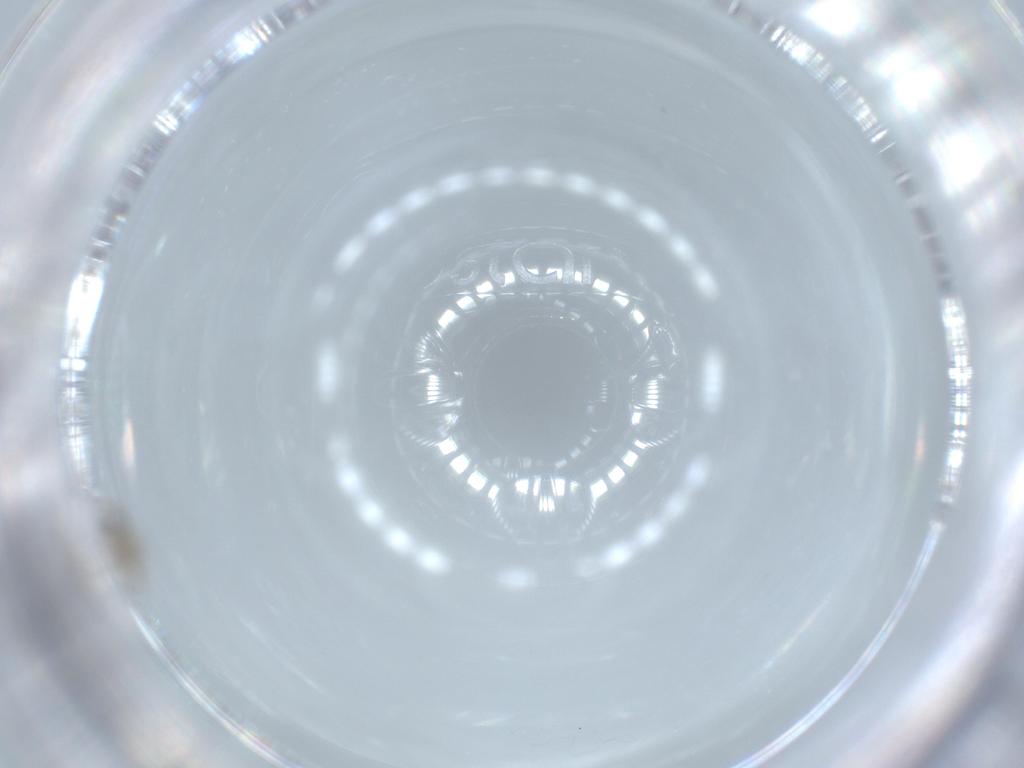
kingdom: Animalia
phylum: Arthropoda
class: Insecta
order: Diptera
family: Cecidomyiidae
